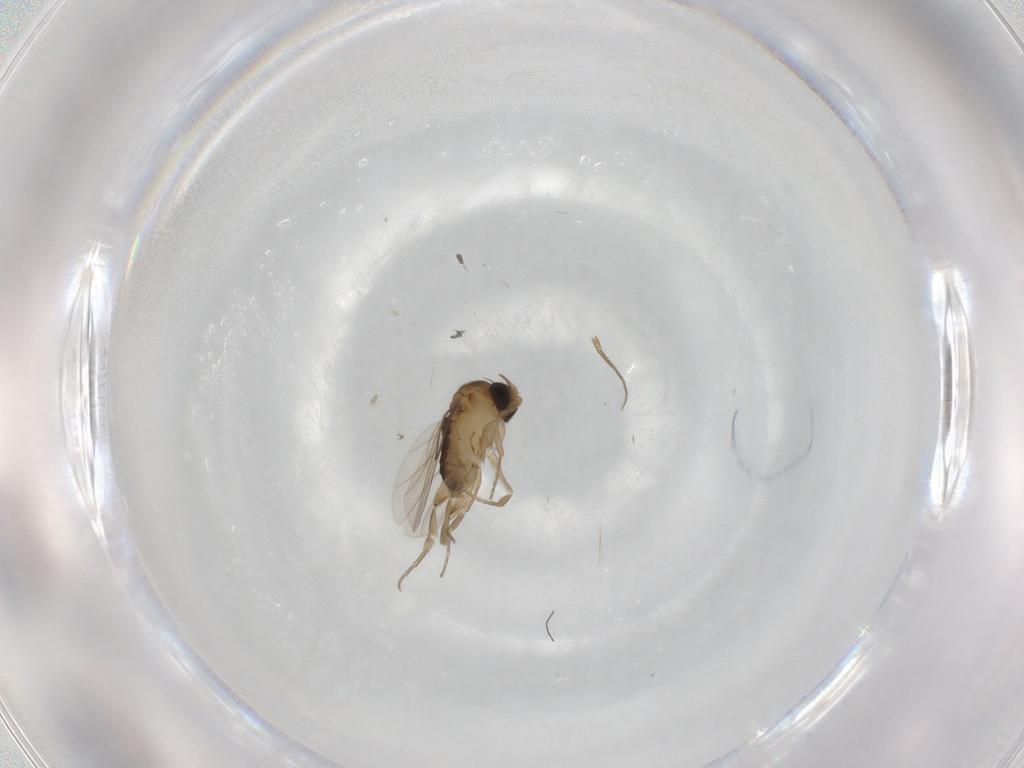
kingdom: Animalia
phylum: Arthropoda
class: Insecta
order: Diptera
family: Phoridae
